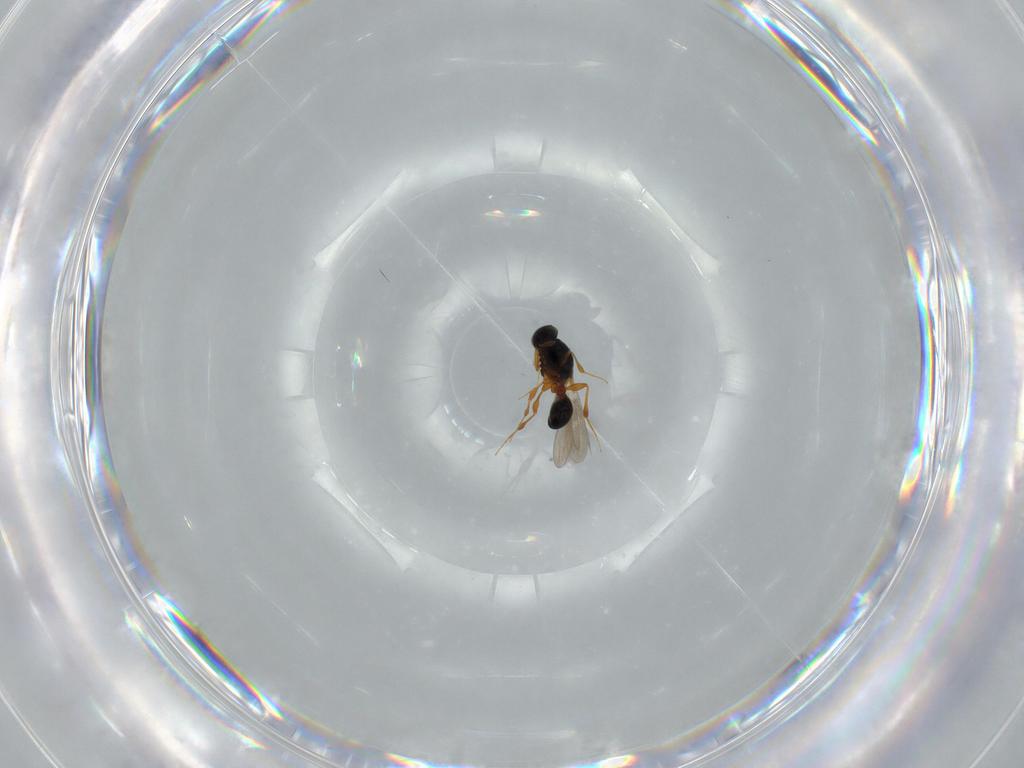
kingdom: Animalia
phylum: Arthropoda
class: Insecta
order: Hymenoptera
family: Platygastridae
